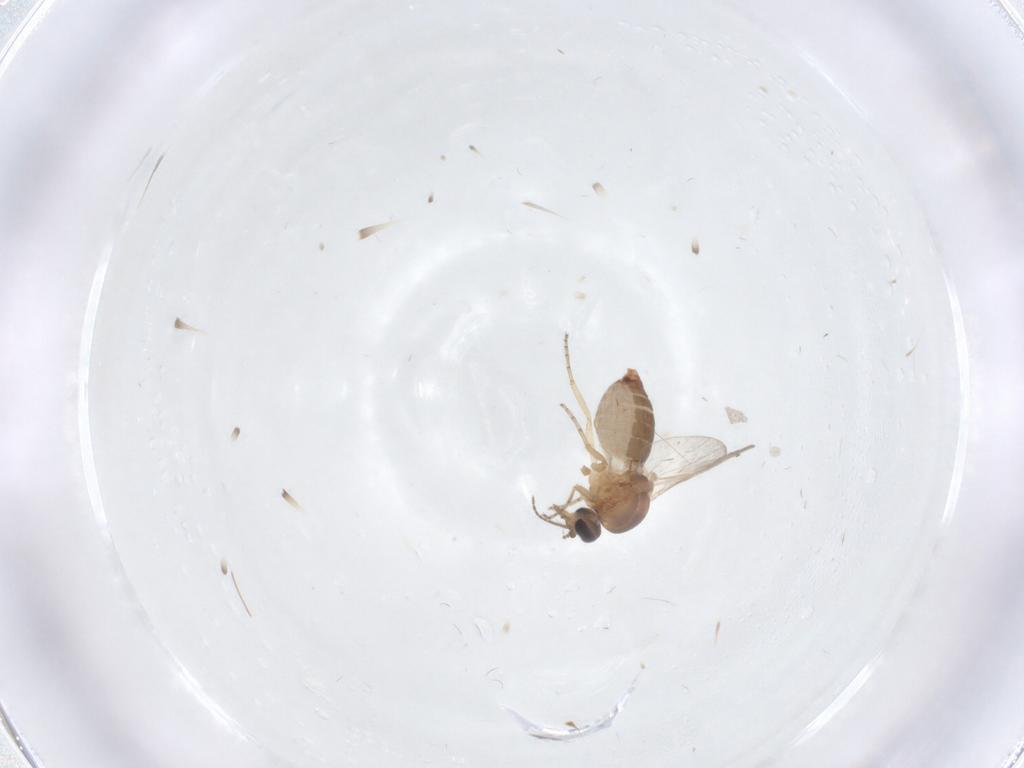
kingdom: Animalia
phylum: Arthropoda
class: Insecta
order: Diptera
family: Ceratopogonidae
